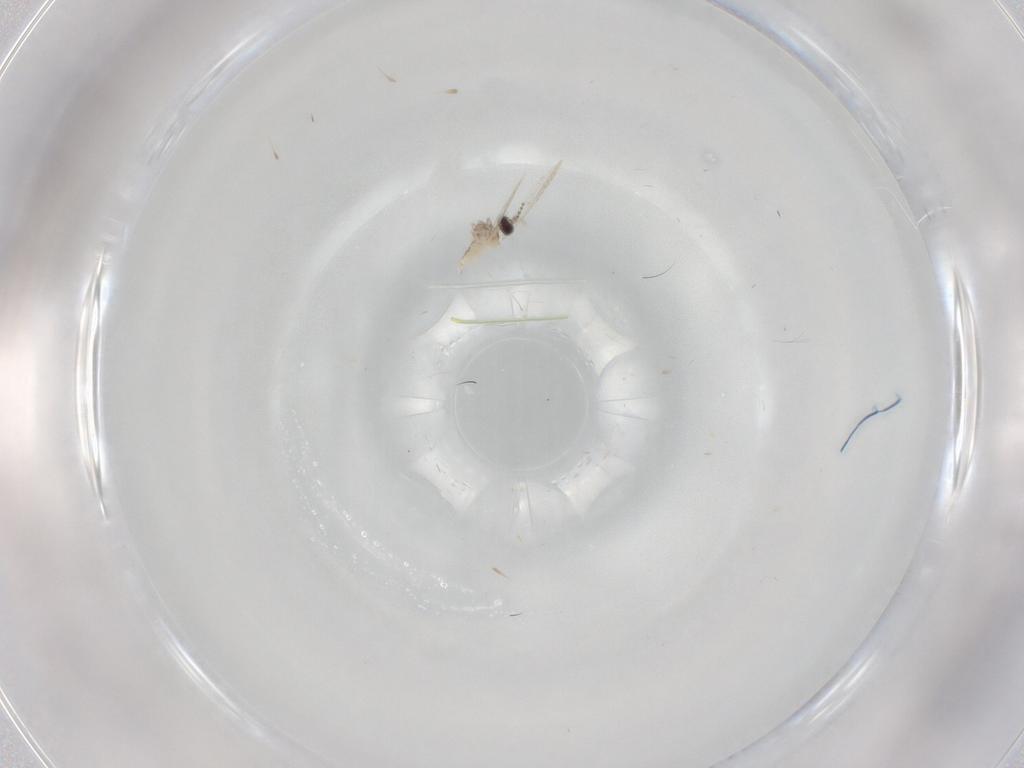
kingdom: Animalia
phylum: Arthropoda
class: Insecta
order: Diptera
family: Cecidomyiidae
